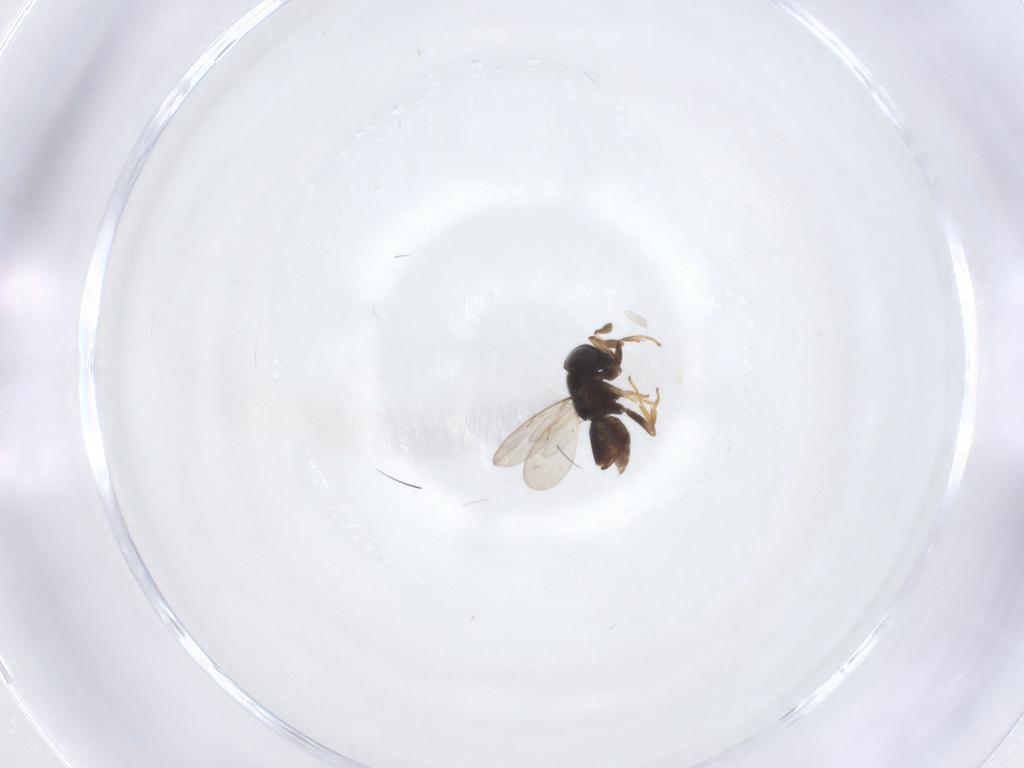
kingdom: Animalia
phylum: Arthropoda
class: Insecta
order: Hymenoptera
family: Encyrtidae
